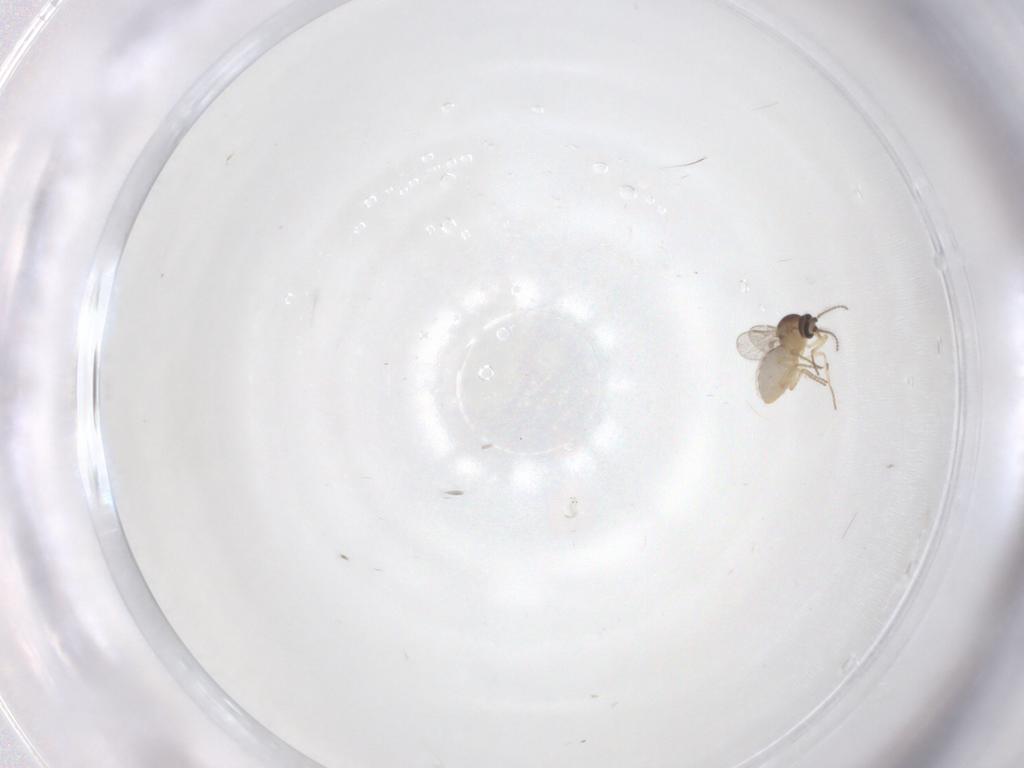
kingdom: Animalia
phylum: Arthropoda
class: Insecta
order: Diptera
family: Ceratopogonidae
